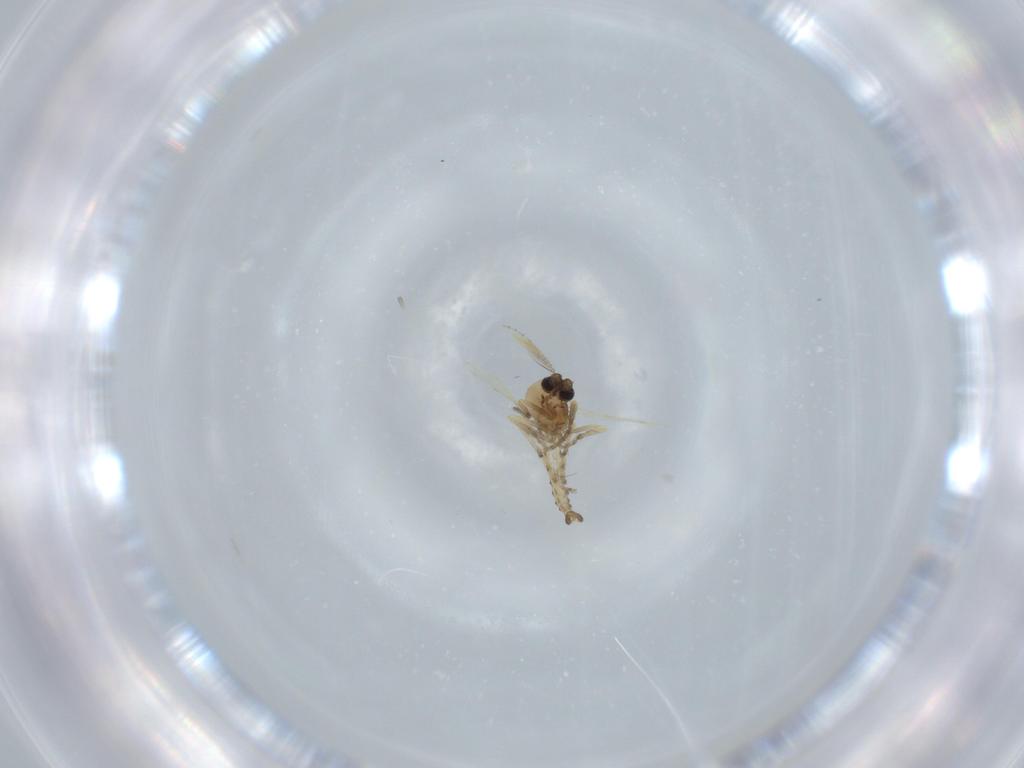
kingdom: Animalia
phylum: Arthropoda
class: Insecta
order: Diptera
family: Ceratopogonidae
